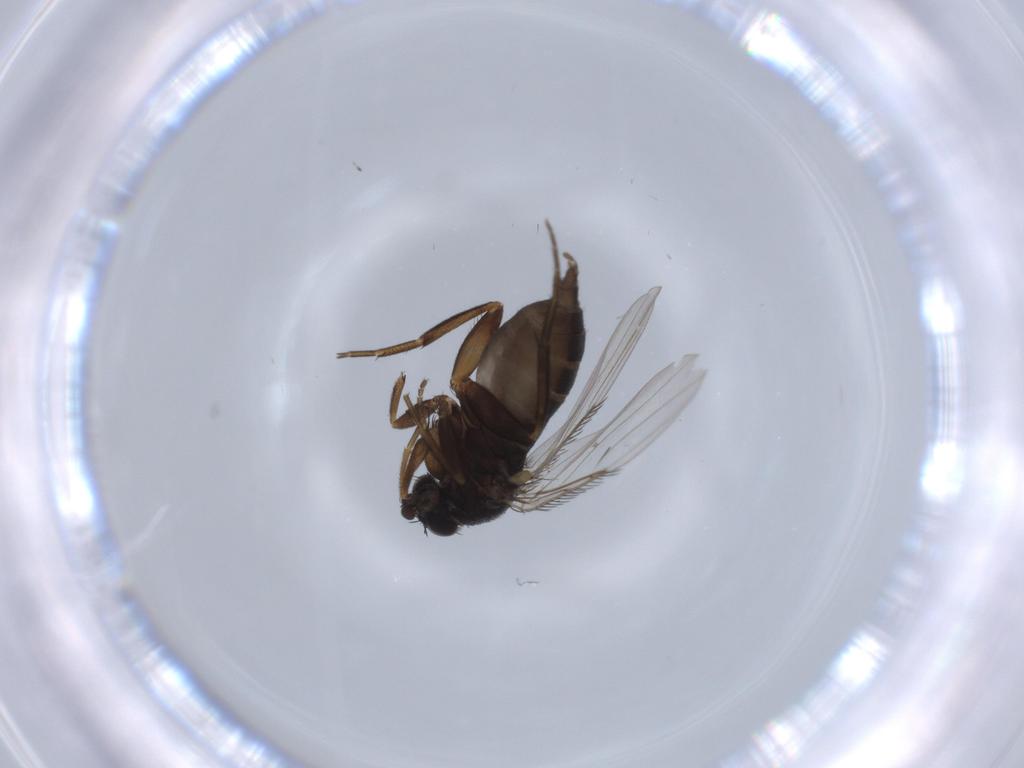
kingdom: Animalia
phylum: Arthropoda
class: Insecta
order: Diptera
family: Phoridae
